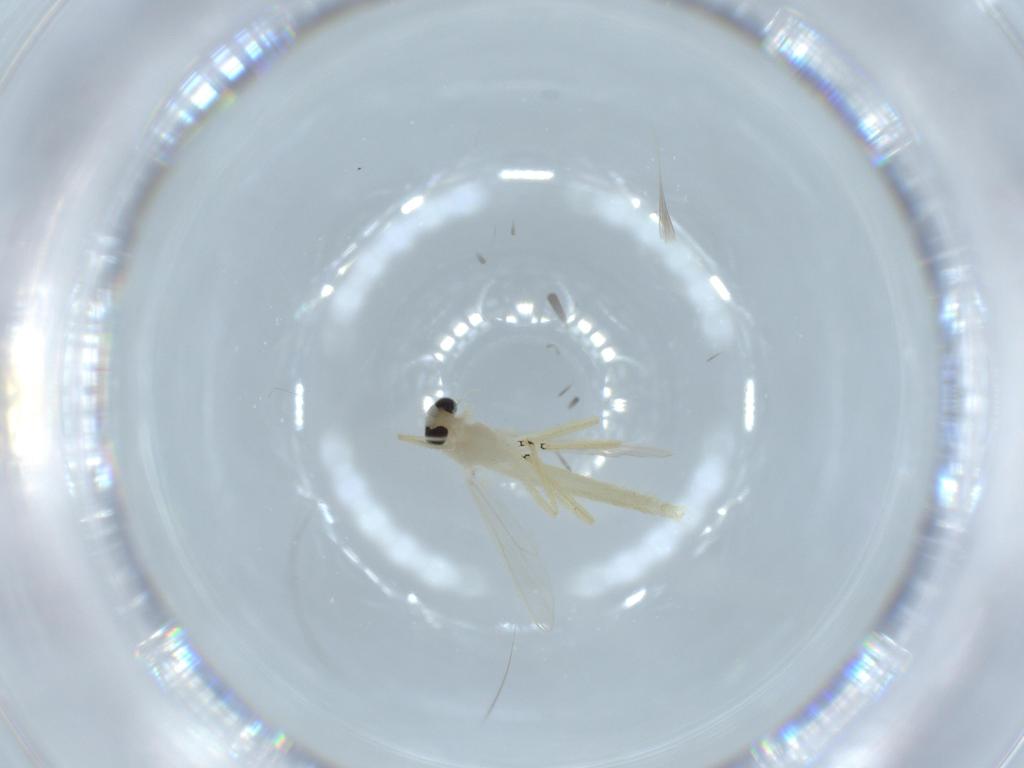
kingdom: Animalia
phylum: Arthropoda
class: Insecta
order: Diptera
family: Chironomidae
